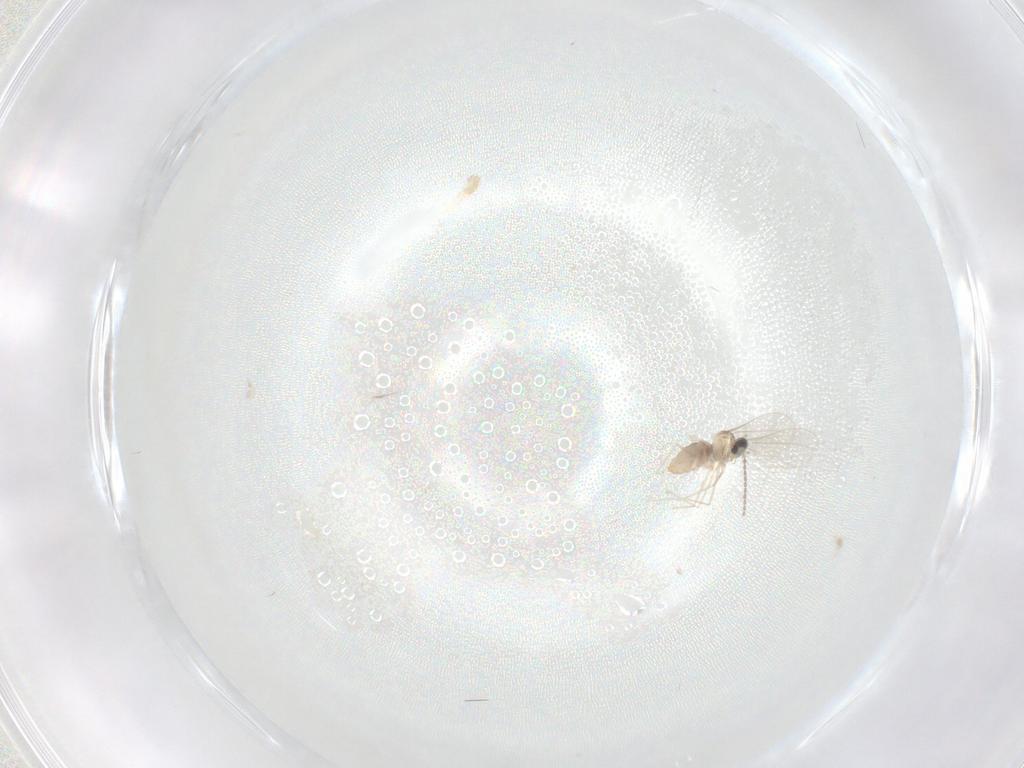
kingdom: Animalia
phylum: Arthropoda
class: Insecta
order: Diptera
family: Cecidomyiidae
